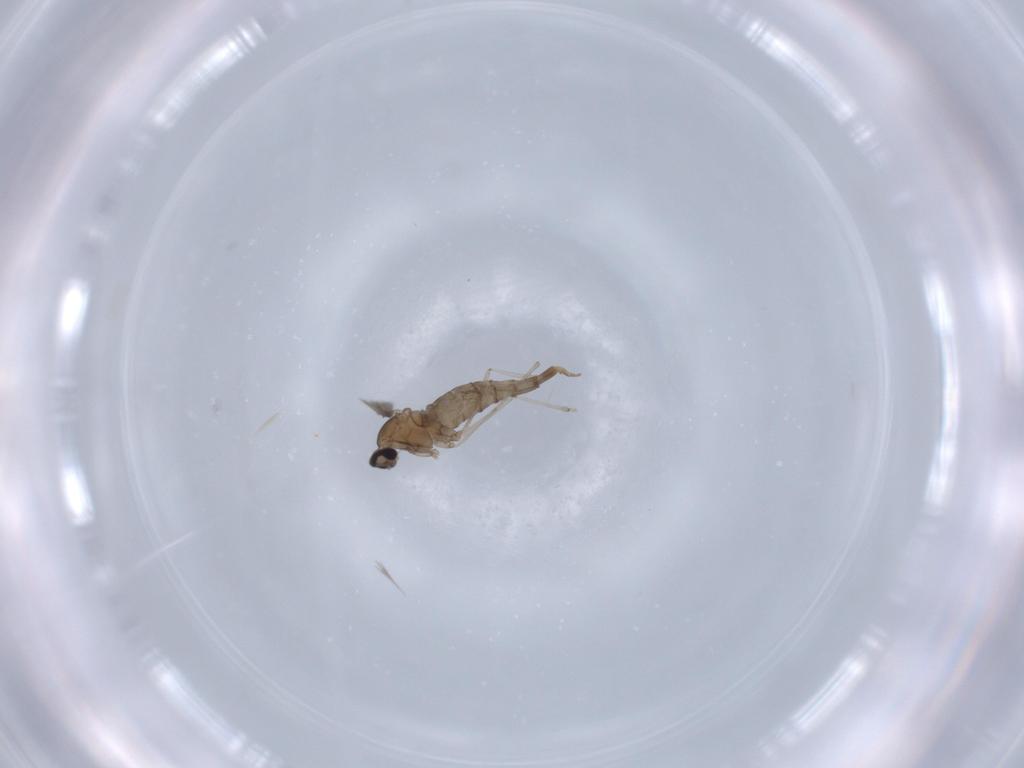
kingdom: Animalia
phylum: Arthropoda
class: Insecta
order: Diptera
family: Cecidomyiidae
